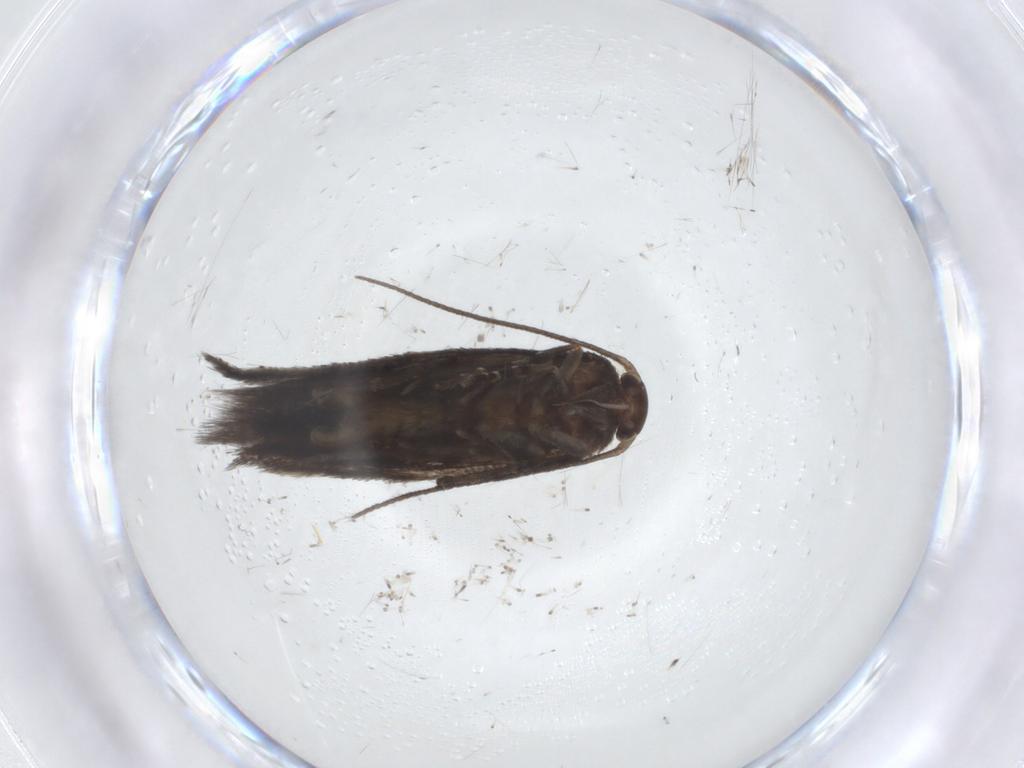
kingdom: Animalia
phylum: Arthropoda
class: Insecta
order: Lepidoptera
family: Elachistidae
